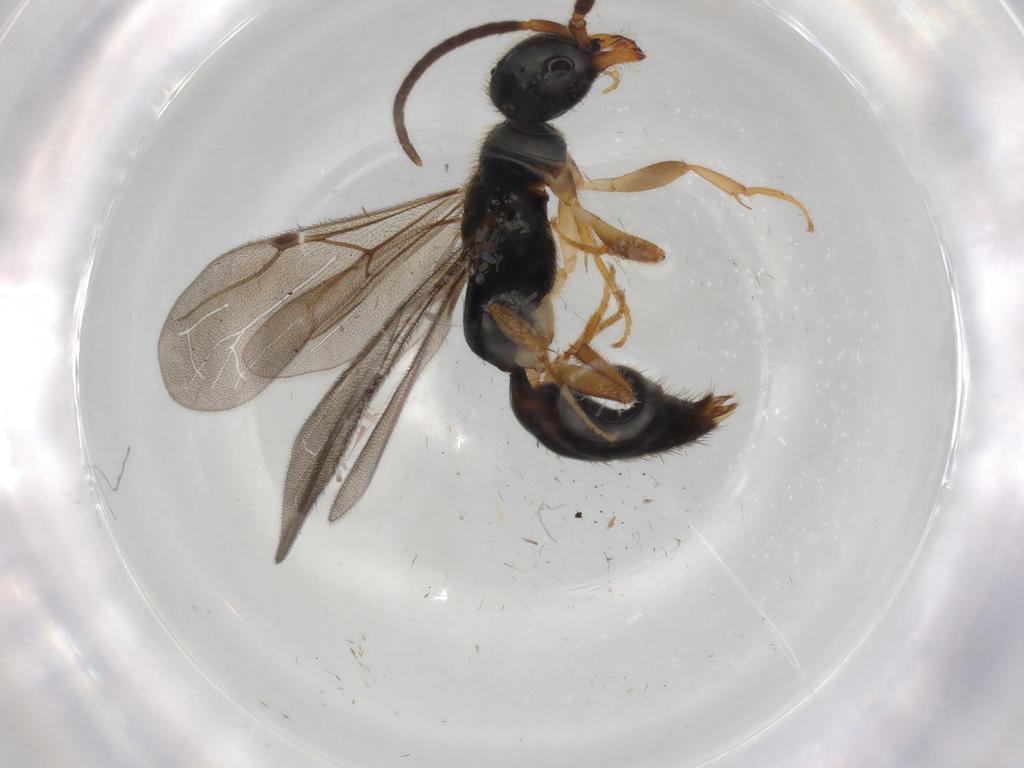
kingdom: Animalia
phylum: Arthropoda
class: Insecta
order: Hymenoptera
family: Bethylidae
